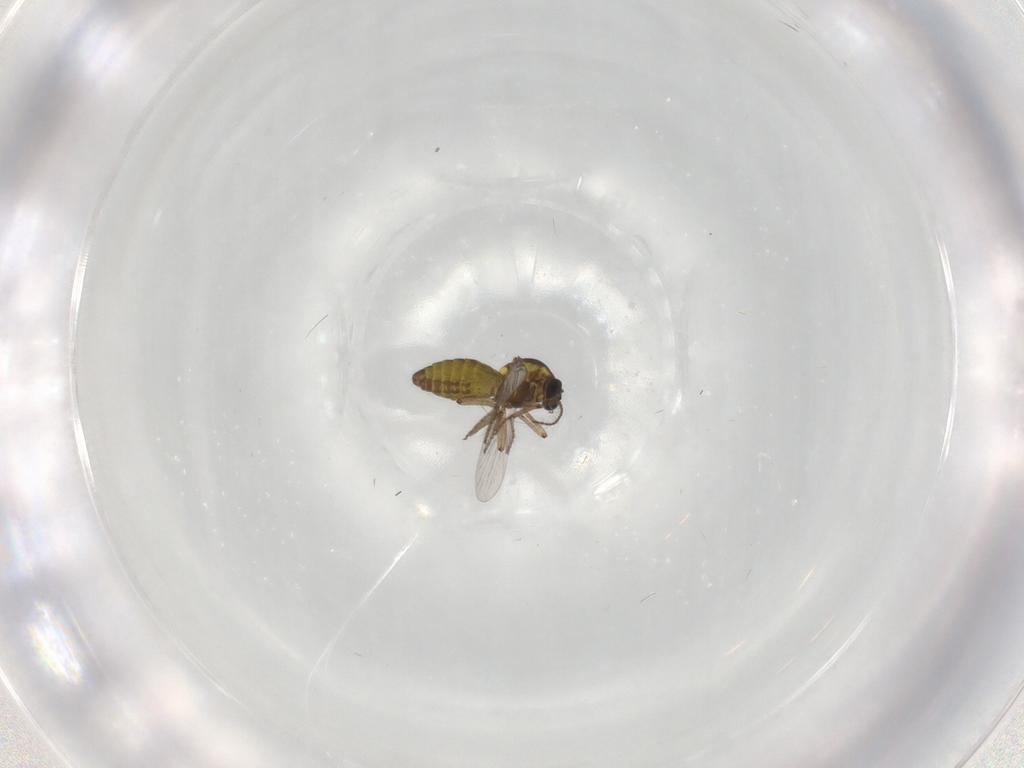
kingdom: Animalia
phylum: Arthropoda
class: Insecta
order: Diptera
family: Ceratopogonidae
